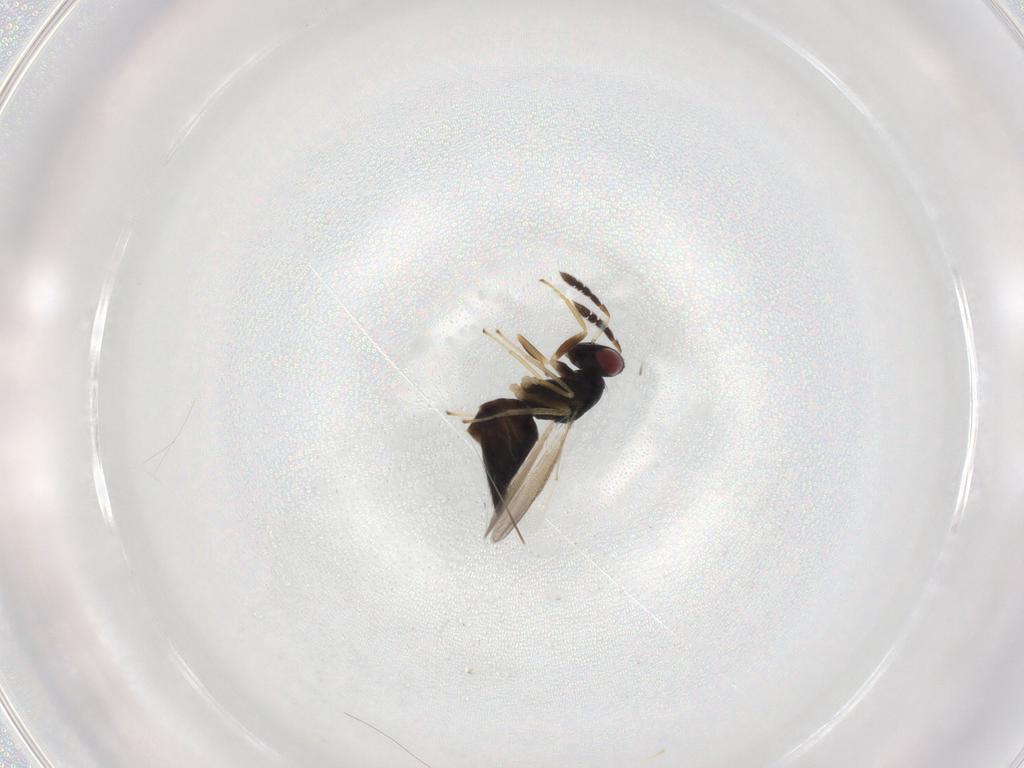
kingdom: Animalia
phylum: Arthropoda
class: Insecta
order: Hymenoptera
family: Eulophidae
